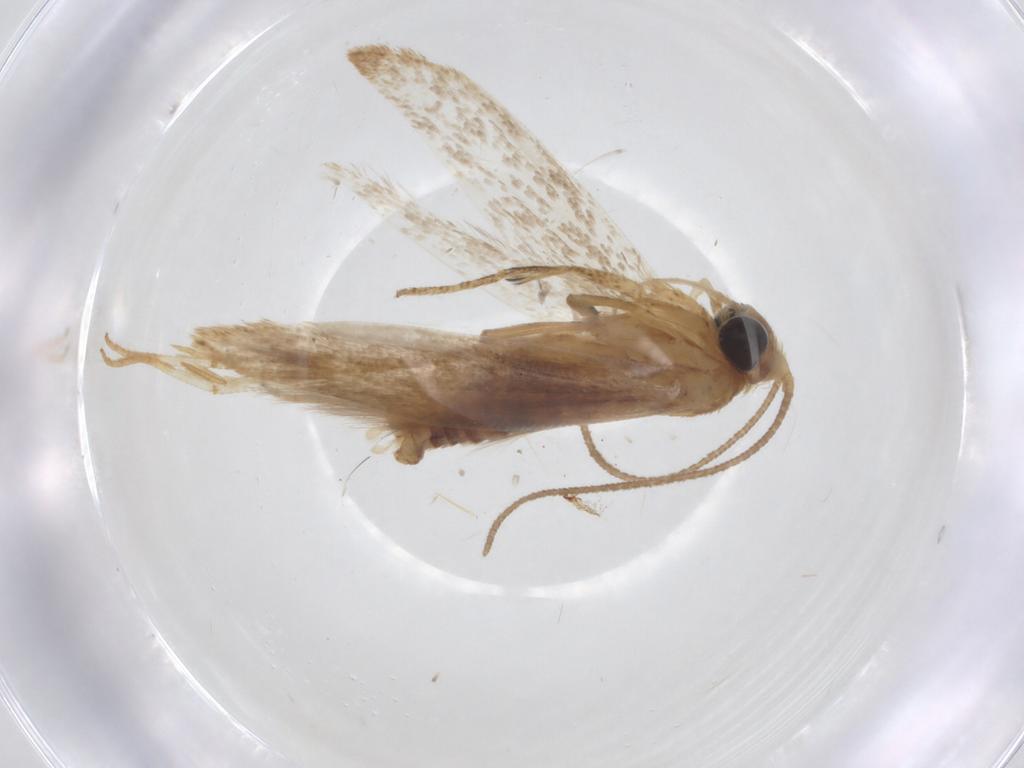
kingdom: Animalia
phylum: Arthropoda
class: Insecta
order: Lepidoptera
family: Blastobasidae
